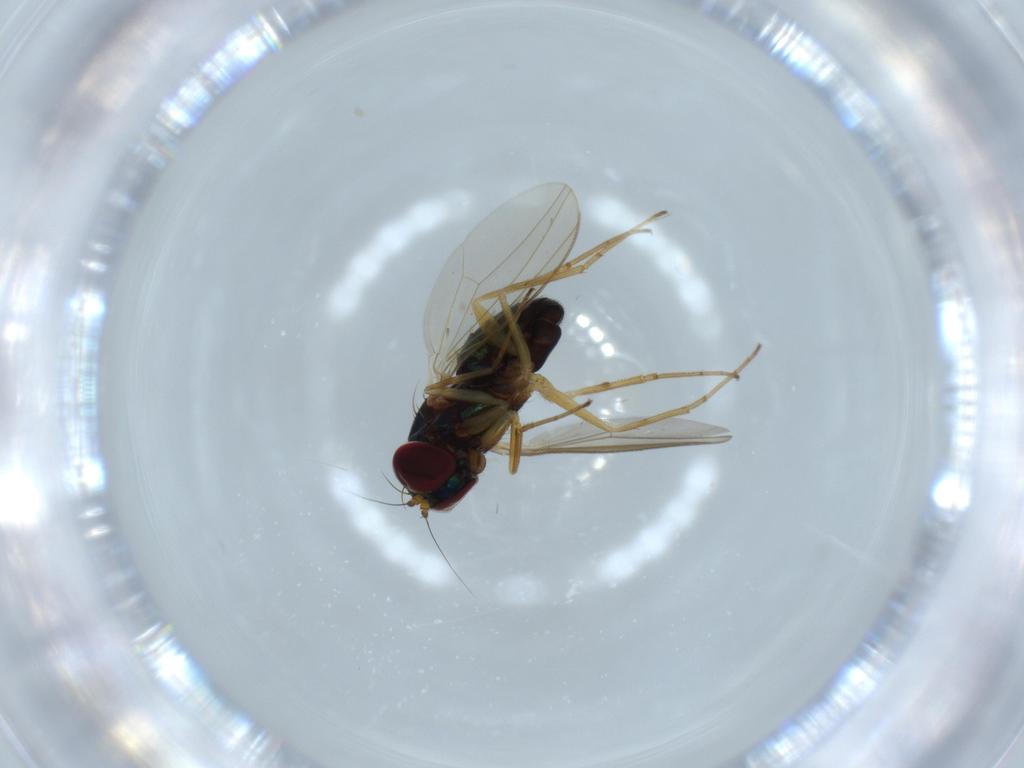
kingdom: Animalia
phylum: Arthropoda
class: Insecta
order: Diptera
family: Dolichopodidae
